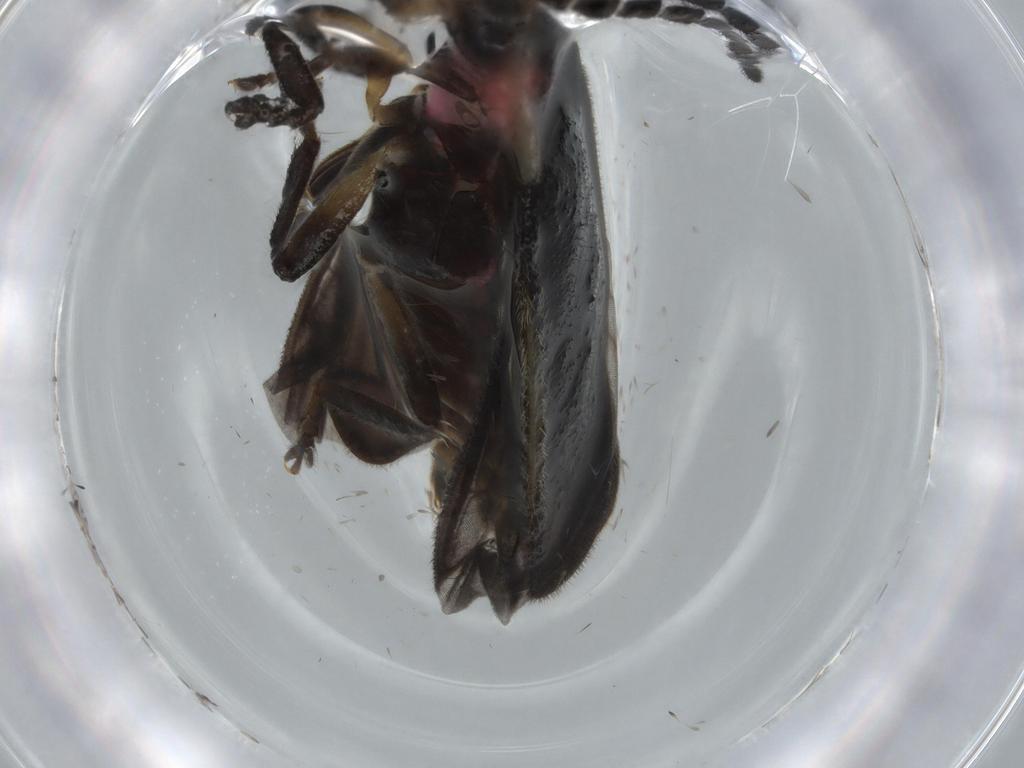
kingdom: Animalia
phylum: Arthropoda
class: Insecta
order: Coleoptera
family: Lampyridae
